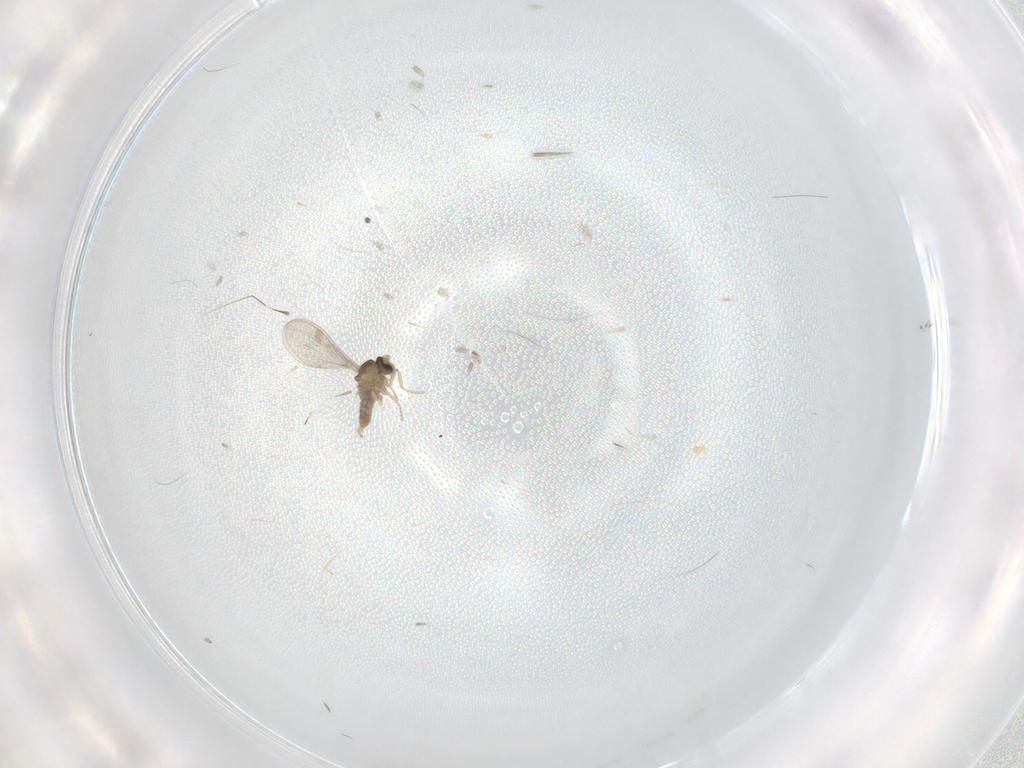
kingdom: Animalia
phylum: Arthropoda
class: Insecta
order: Diptera
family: Cecidomyiidae
